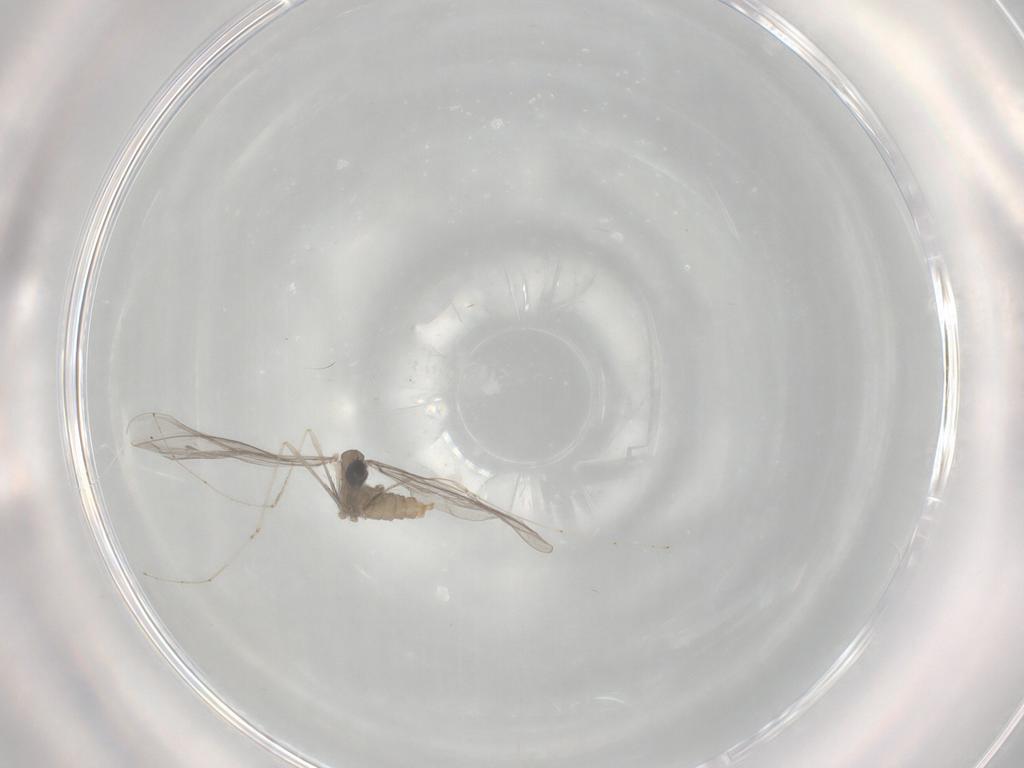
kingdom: Animalia
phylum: Arthropoda
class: Insecta
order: Diptera
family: Cecidomyiidae
